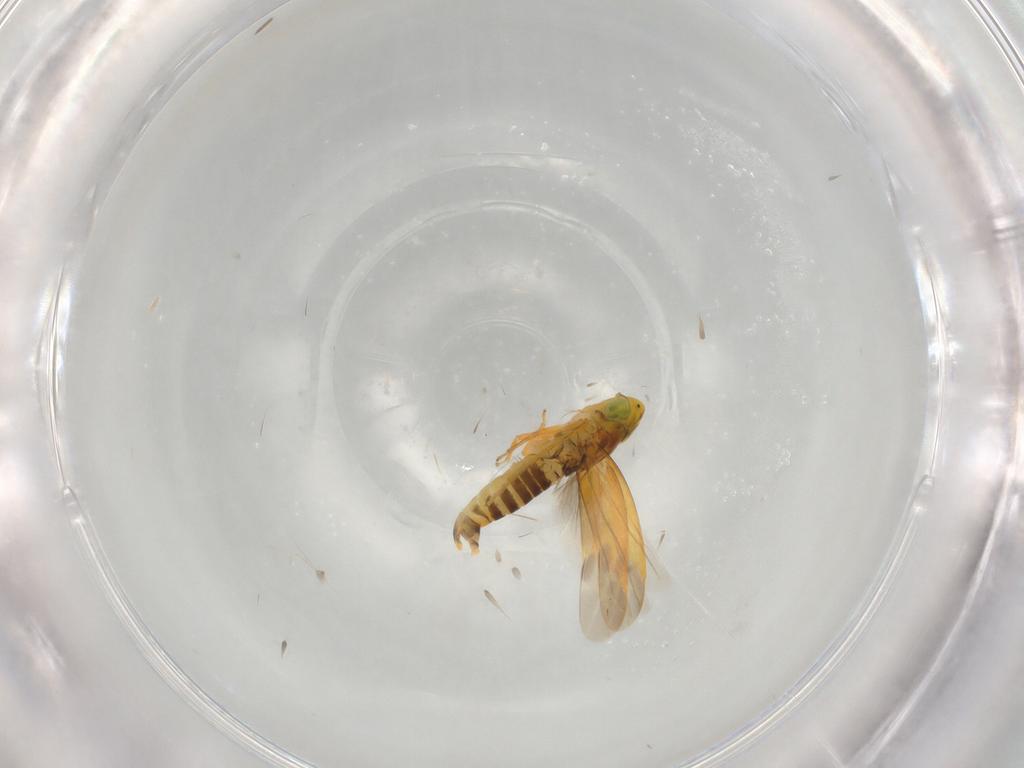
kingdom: Animalia
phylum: Arthropoda
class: Insecta
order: Hemiptera
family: Cicadellidae
